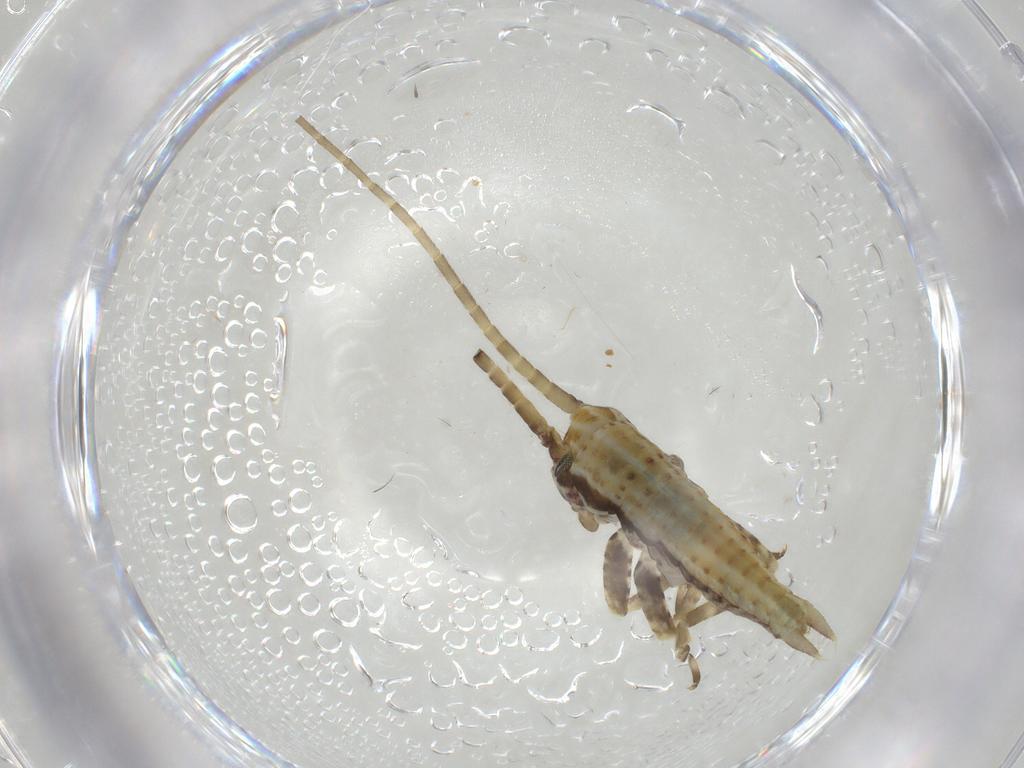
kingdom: Animalia
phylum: Arthropoda
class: Insecta
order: Orthoptera
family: Gryllidae
